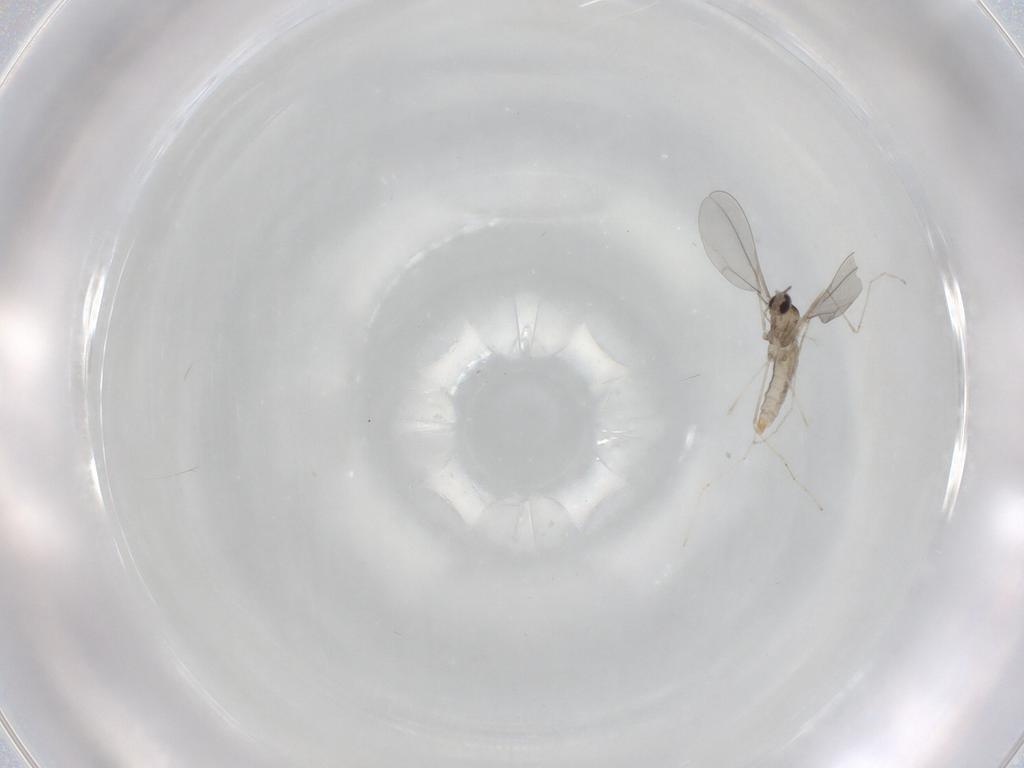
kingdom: Animalia
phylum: Arthropoda
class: Insecta
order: Diptera
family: Cecidomyiidae
